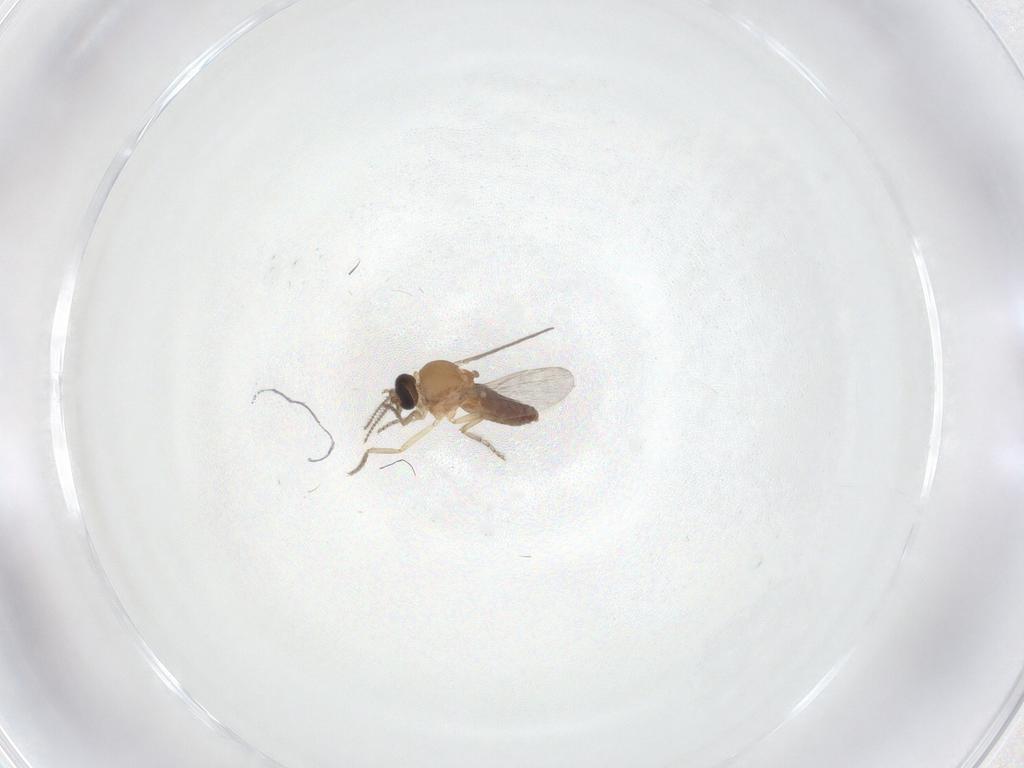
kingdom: Animalia
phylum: Arthropoda
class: Insecta
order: Diptera
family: Ceratopogonidae
